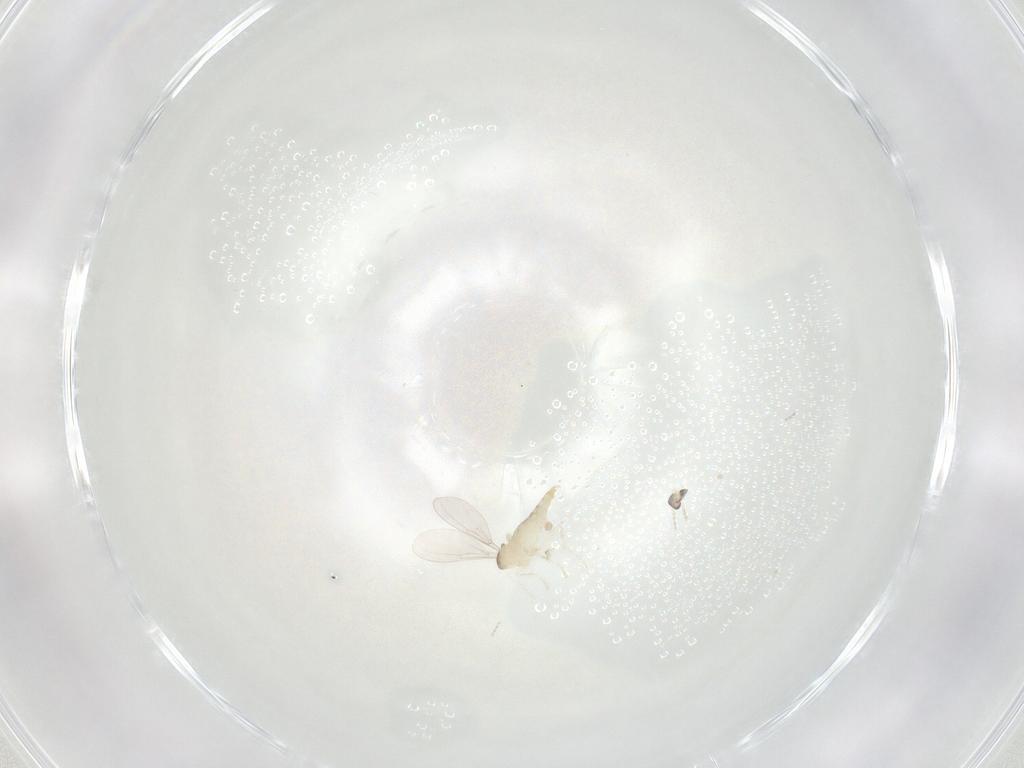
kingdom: Animalia
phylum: Arthropoda
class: Insecta
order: Diptera
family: Cecidomyiidae
